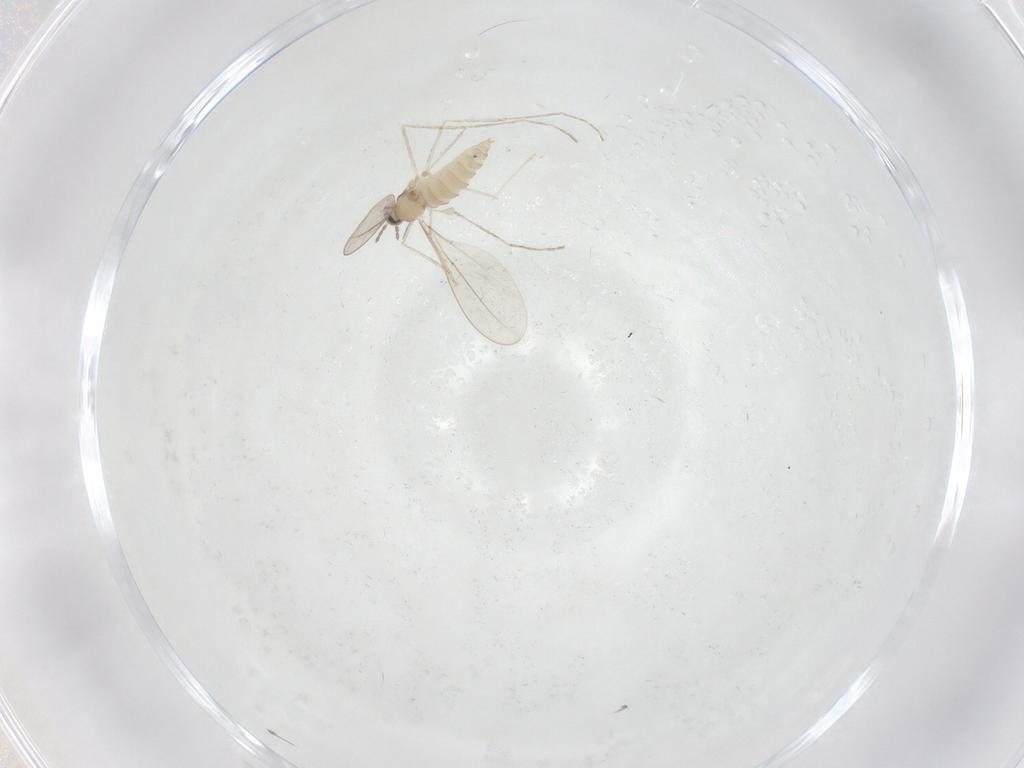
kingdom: Animalia
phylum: Arthropoda
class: Insecta
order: Diptera
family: Cecidomyiidae
